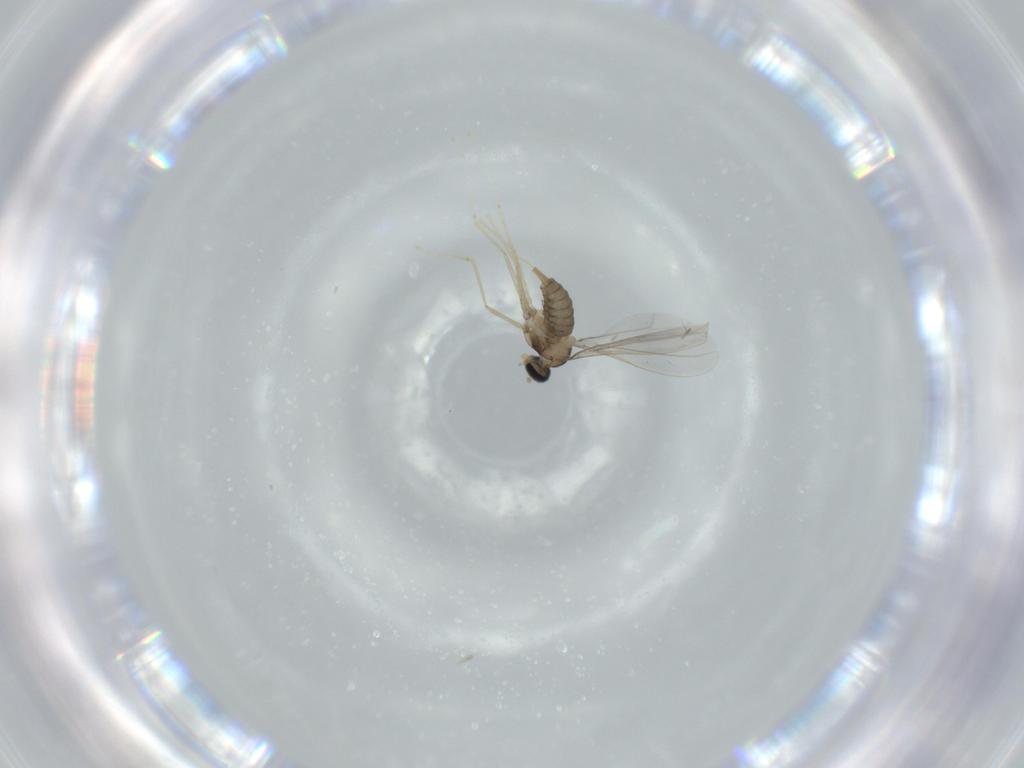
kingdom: Animalia
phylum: Arthropoda
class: Insecta
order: Diptera
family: Cecidomyiidae
